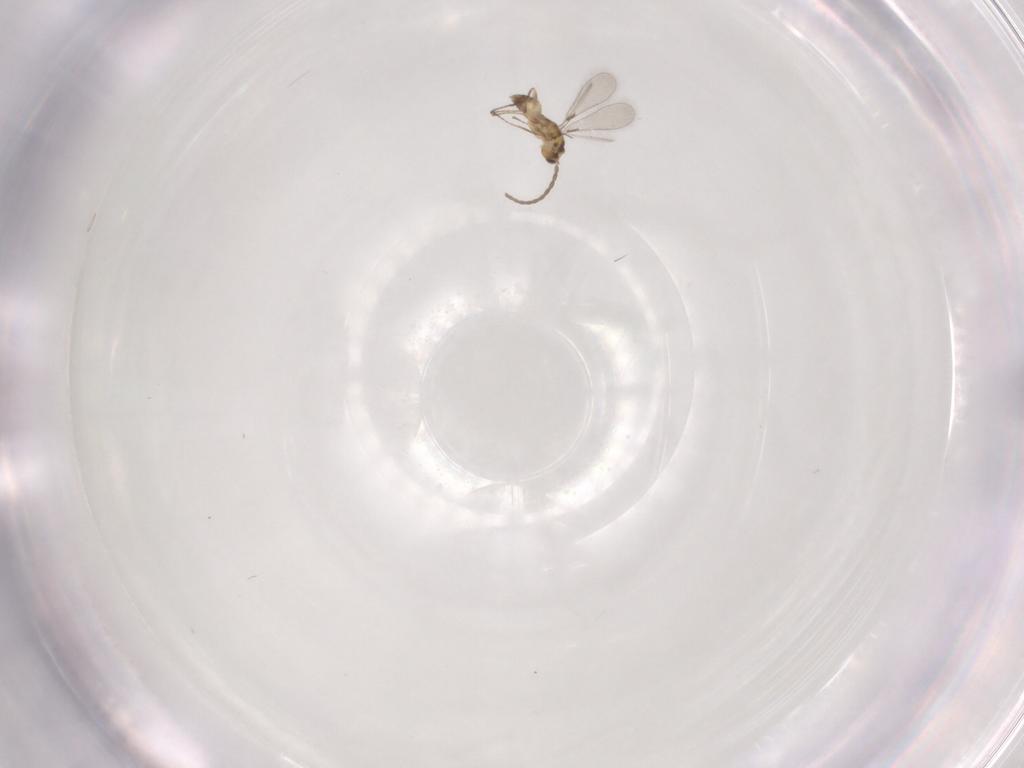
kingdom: Animalia
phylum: Arthropoda
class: Insecta
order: Hymenoptera
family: Mymaridae
